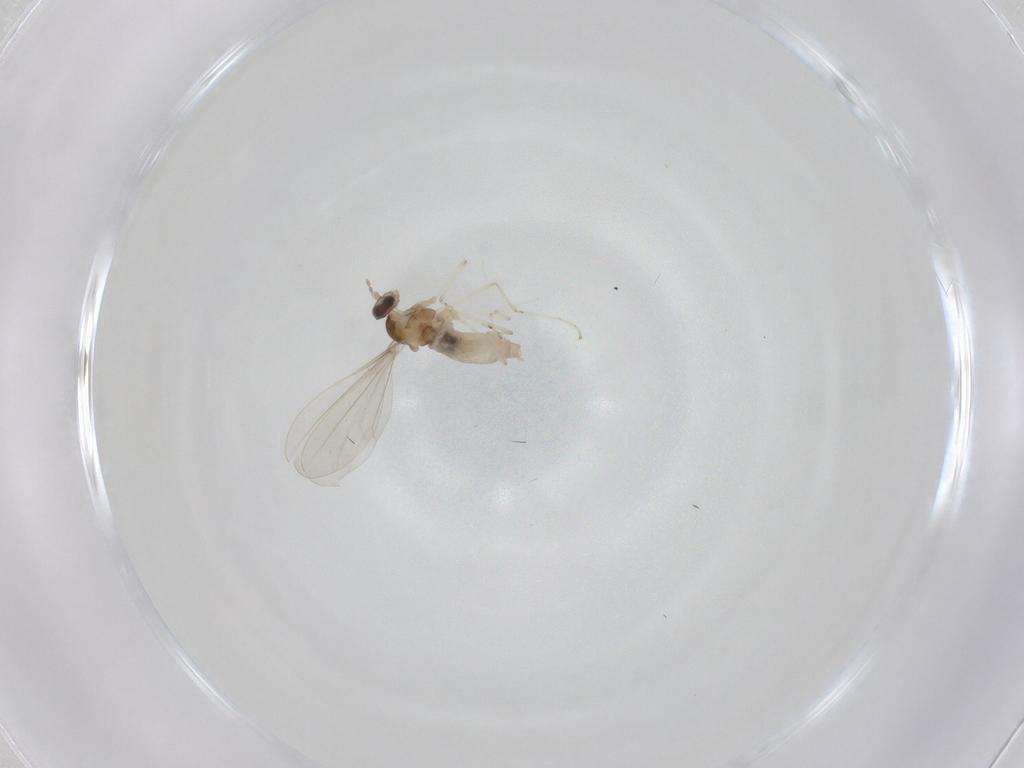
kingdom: Animalia
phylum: Arthropoda
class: Insecta
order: Diptera
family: Cecidomyiidae
